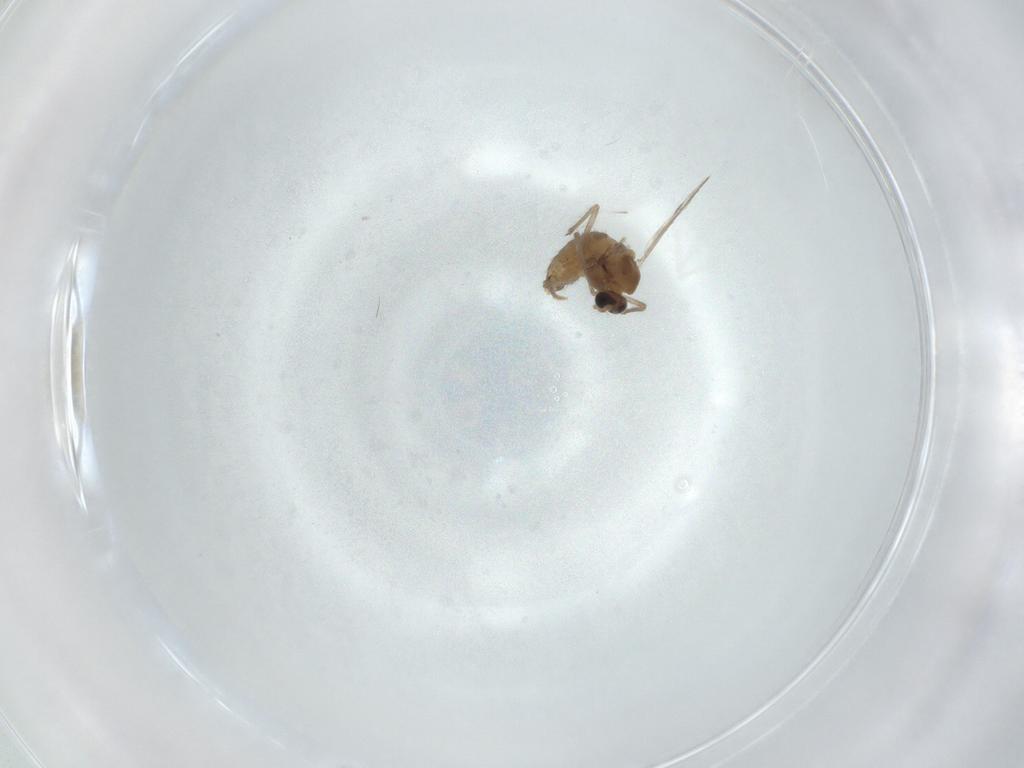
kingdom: Animalia
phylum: Arthropoda
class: Insecta
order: Diptera
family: Chironomidae
